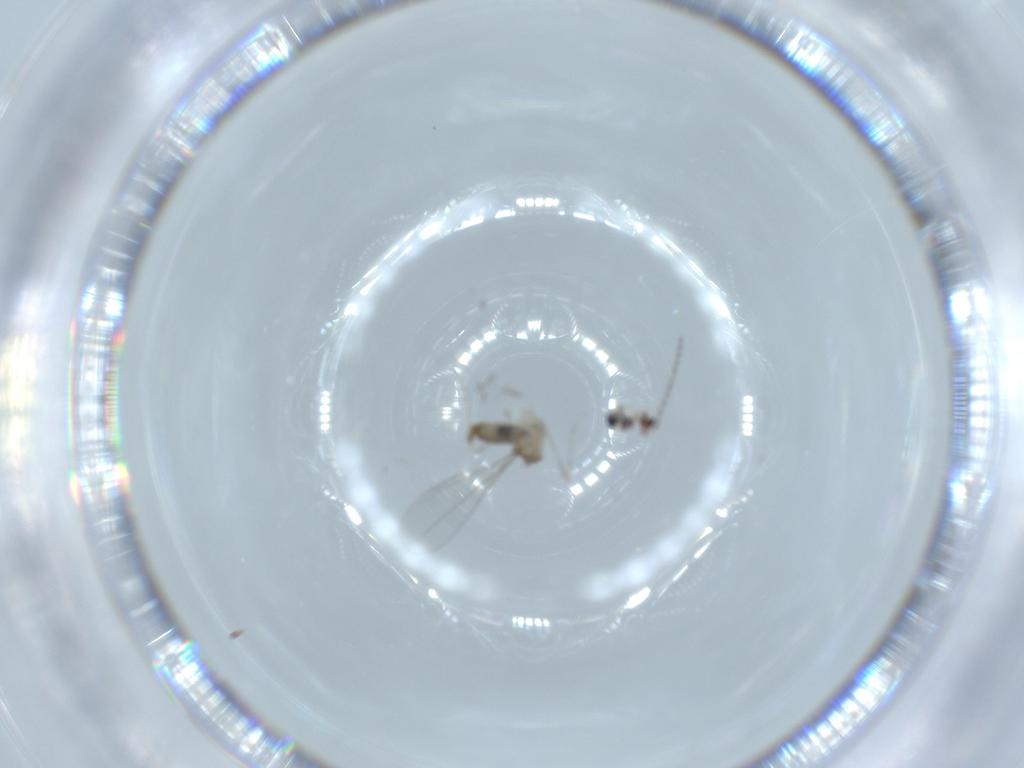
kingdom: Animalia
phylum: Arthropoda
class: Insecta
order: Diptera
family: Cecidomyiidae
